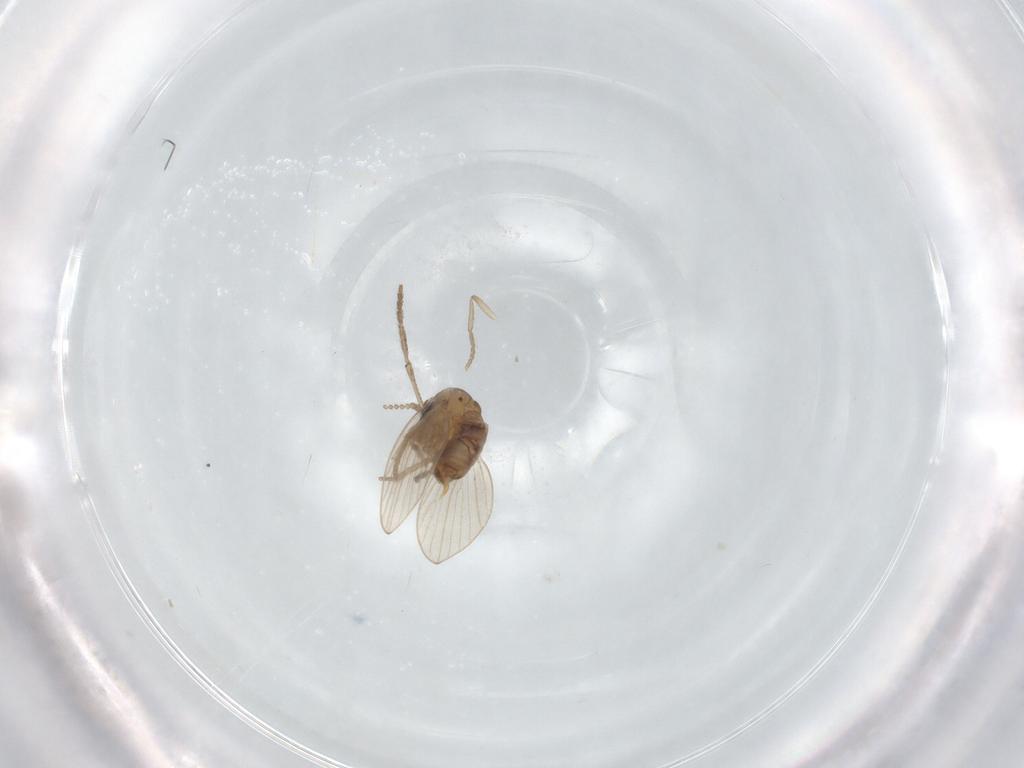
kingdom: Animalia
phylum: Arthropoda
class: Insecta
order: Diptera
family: Psychodidae
